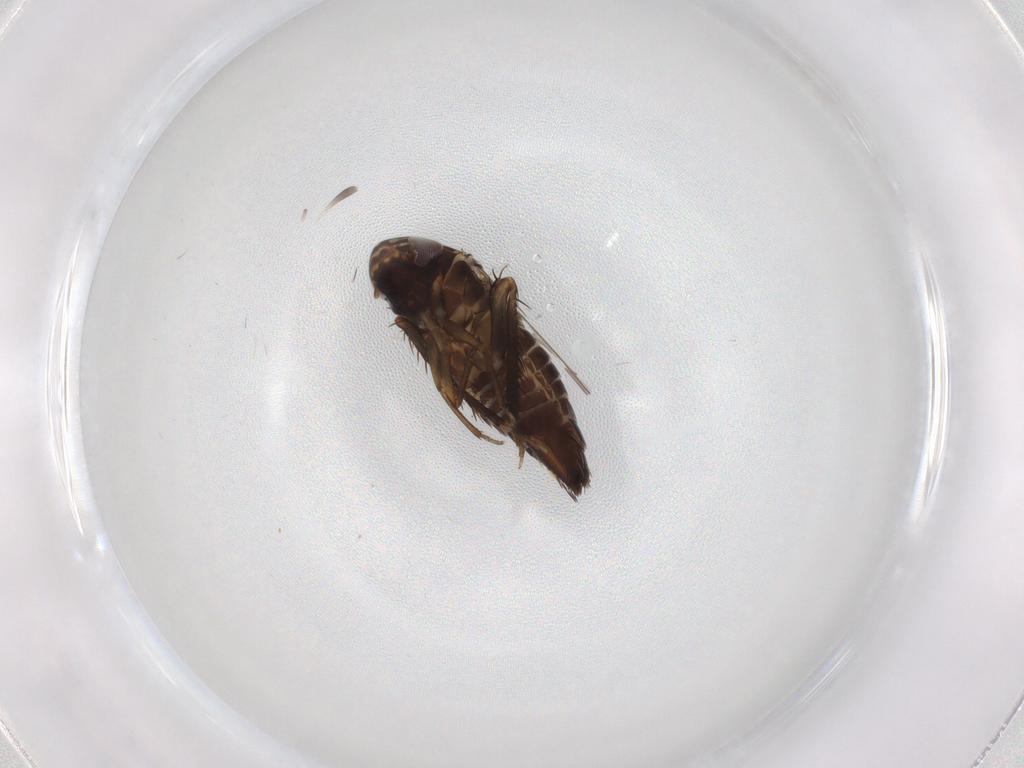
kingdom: Animalia
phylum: Arthropoda
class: Insecta
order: Hemiptera
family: Cicadellidae
